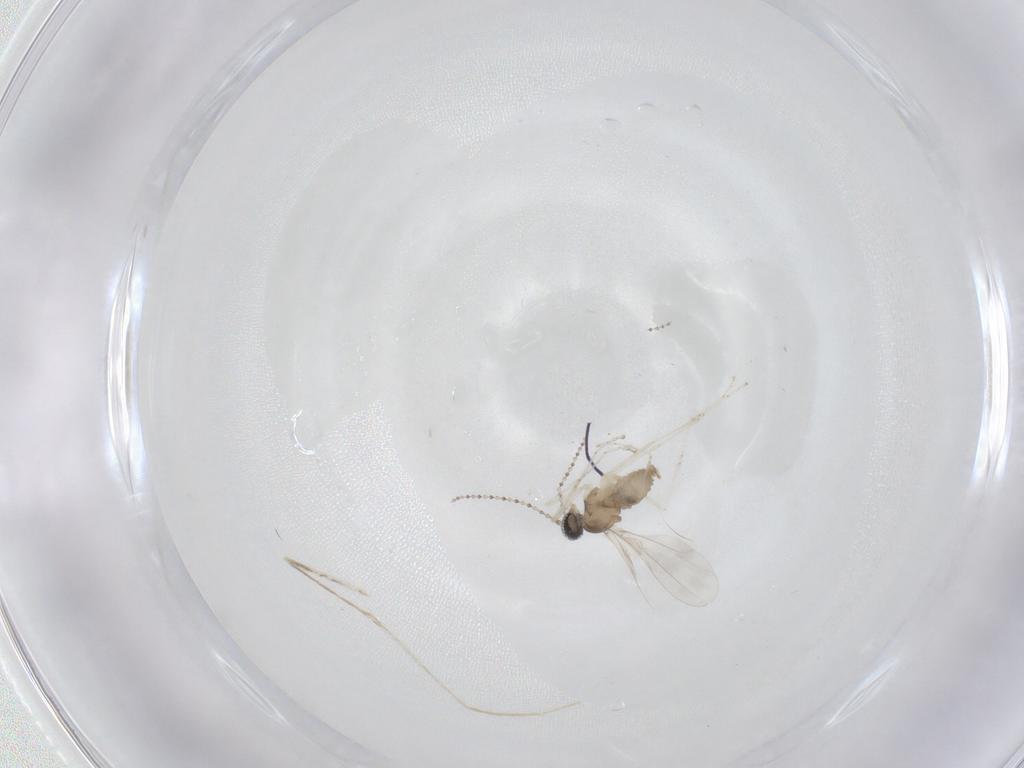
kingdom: Animalia
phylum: Arthropoda
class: Insecta
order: Diptera
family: Cecidomyiidae
